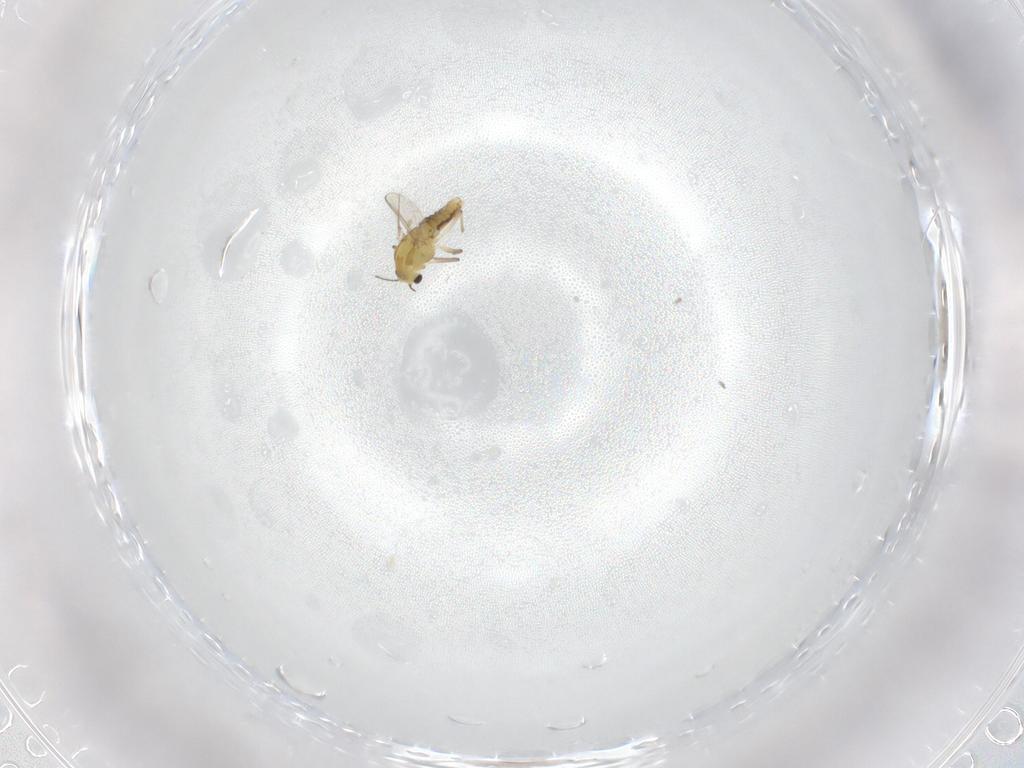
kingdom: Animalia
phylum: Arthropoda
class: Insecta
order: Diptera
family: Chironomidae
